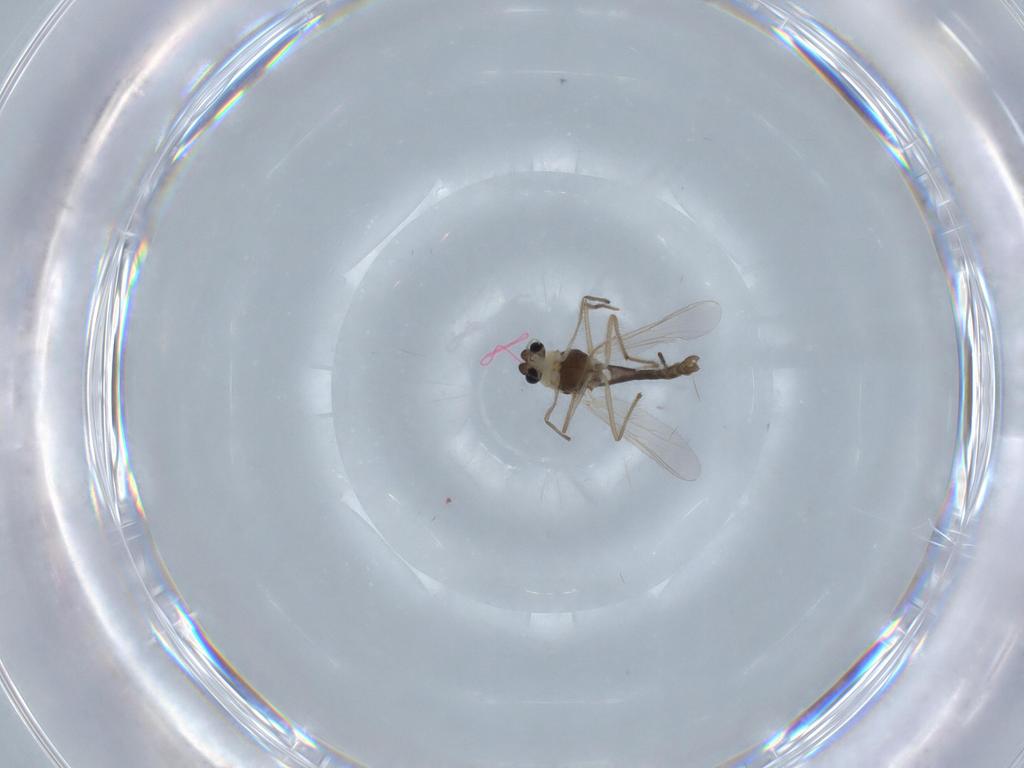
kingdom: Animalia
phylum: Arthropoda
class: Insecta
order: Diptera
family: Chironomidae
